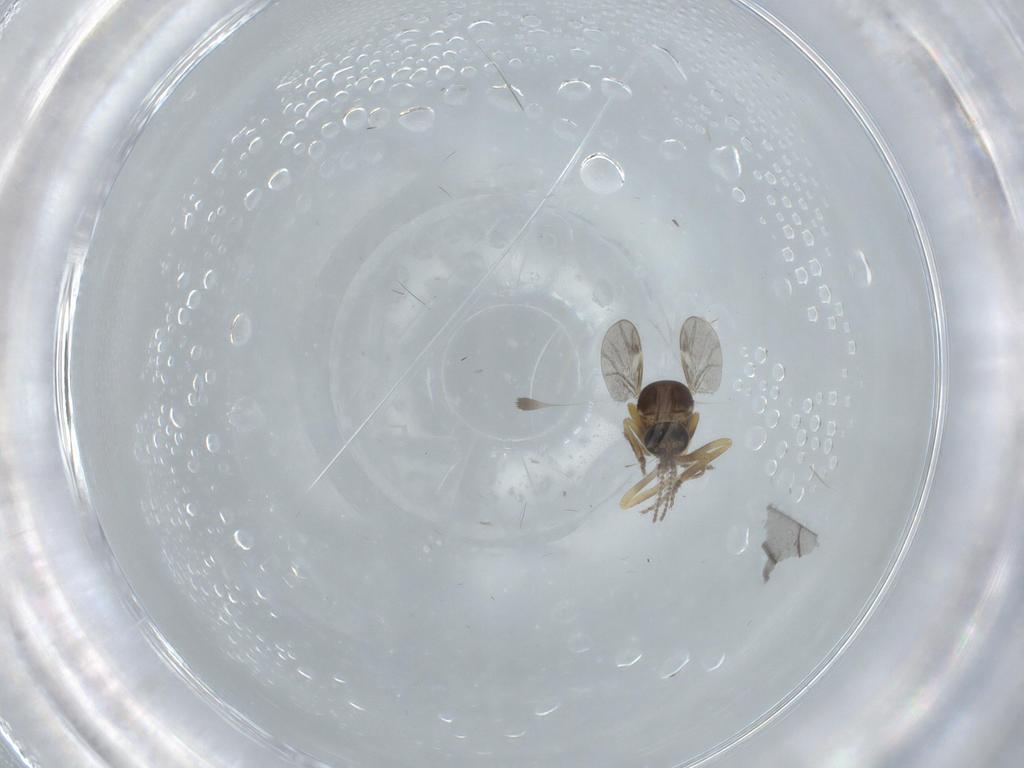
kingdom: Animalia
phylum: Arthropoda
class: Insecta
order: Diptera
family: Ceratopogonidae
